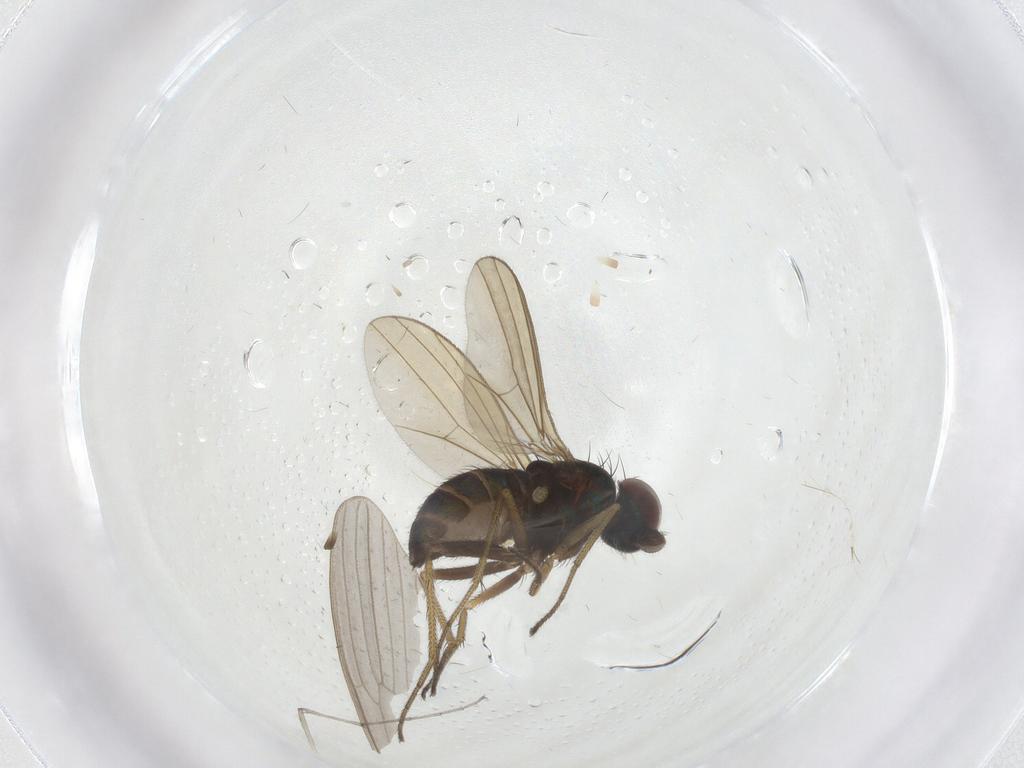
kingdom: Animalia
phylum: Arthropoda
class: Insecta
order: Diptera
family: Dolichopodidae
